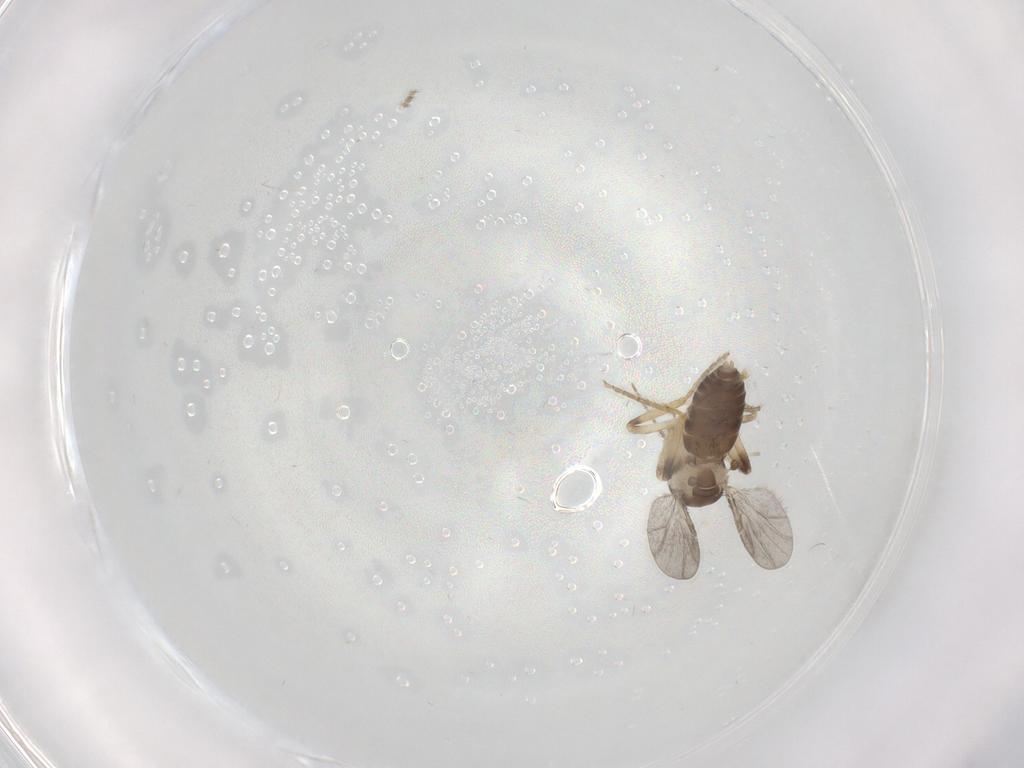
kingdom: Animalia
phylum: Arthropoda
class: Insecta
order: Diptera
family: Ceratopogonidae
